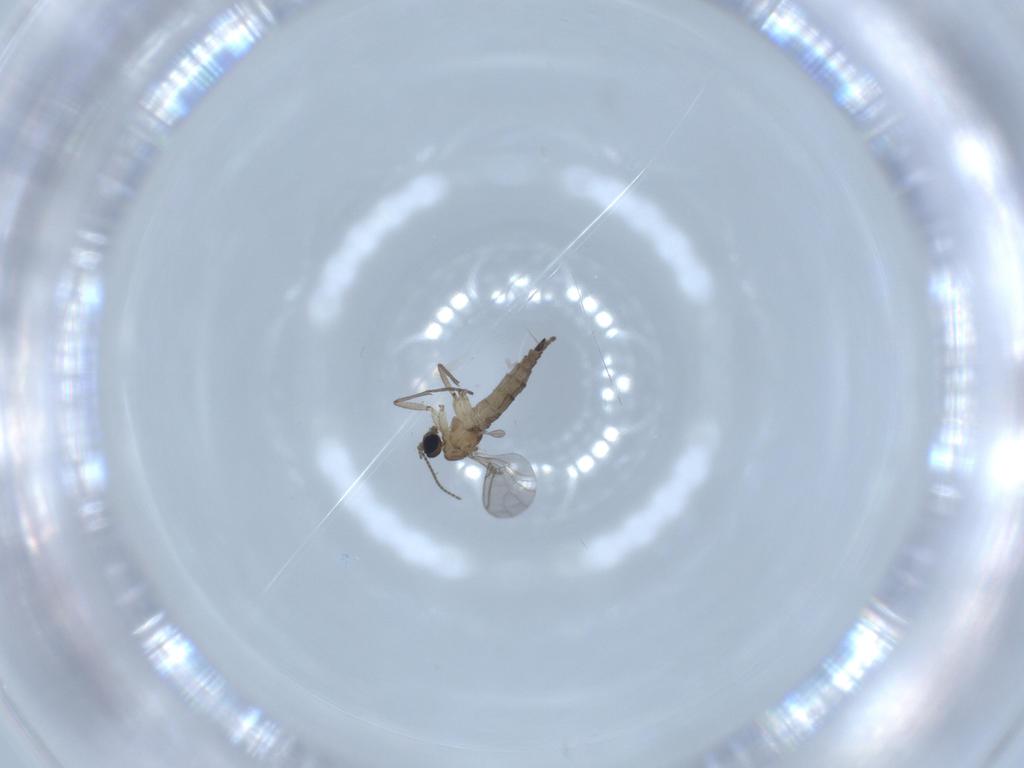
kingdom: Animalia
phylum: Arthropoda
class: Insecta
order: Diptera
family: Sciaridae
